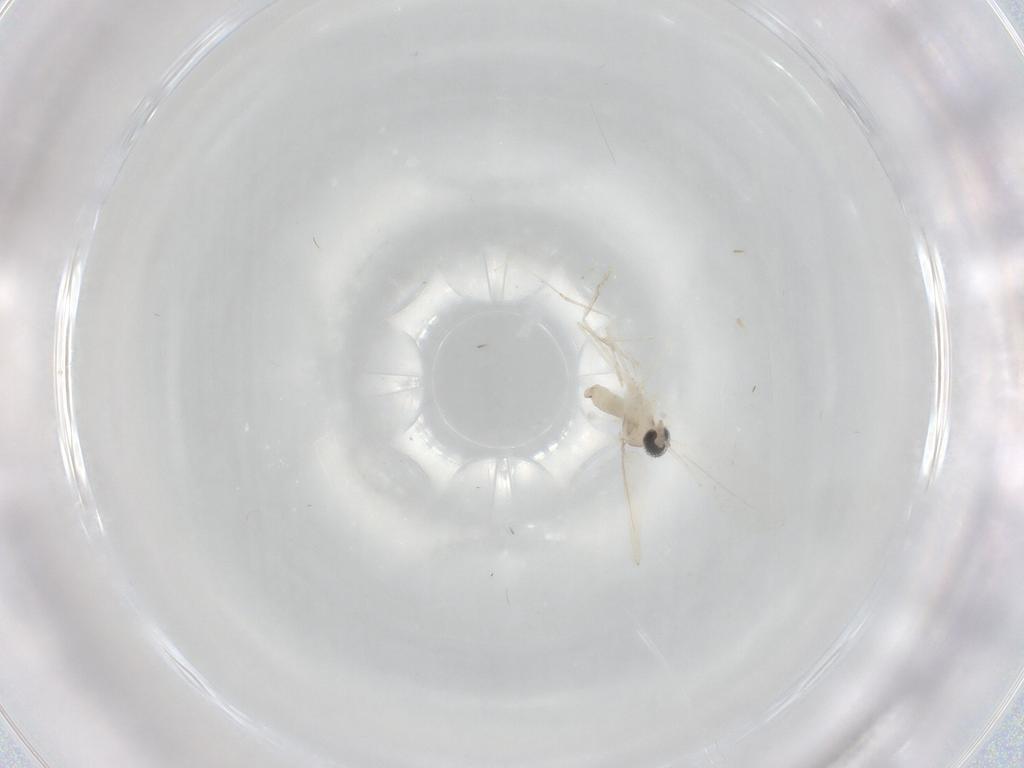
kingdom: Animalia
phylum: Arthropoda
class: Insecta
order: Diptera
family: Cecidomyiidae
